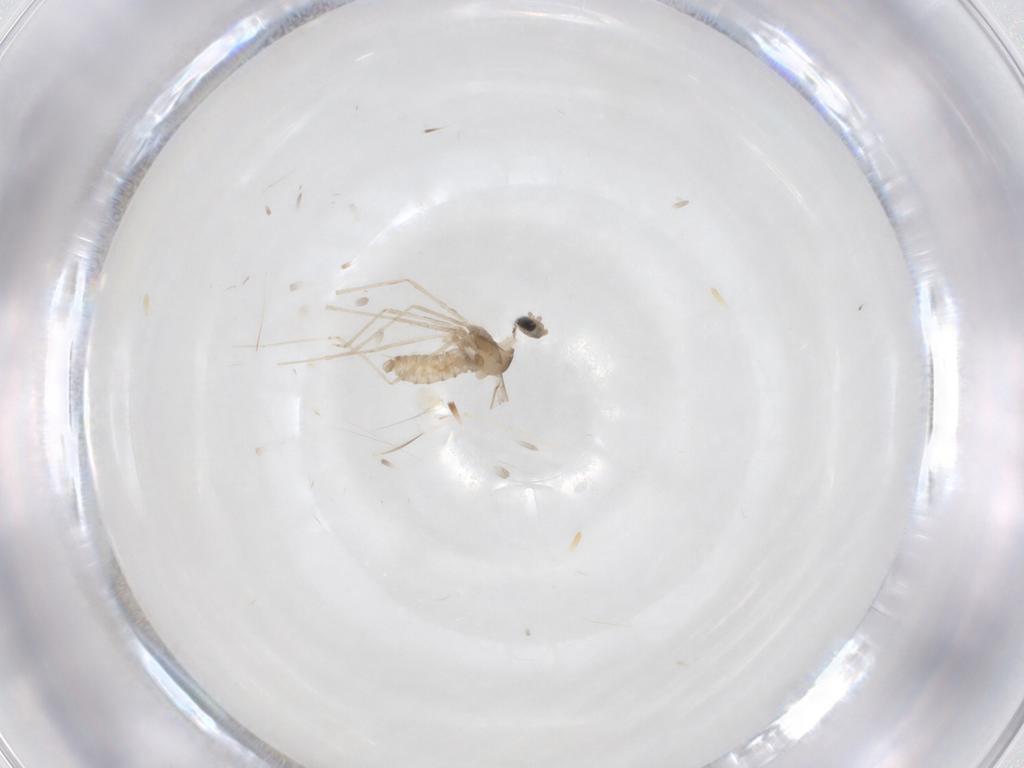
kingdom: Animalia
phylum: Arthropoda
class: Insecta
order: Diptera
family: Cecidomyiidae
